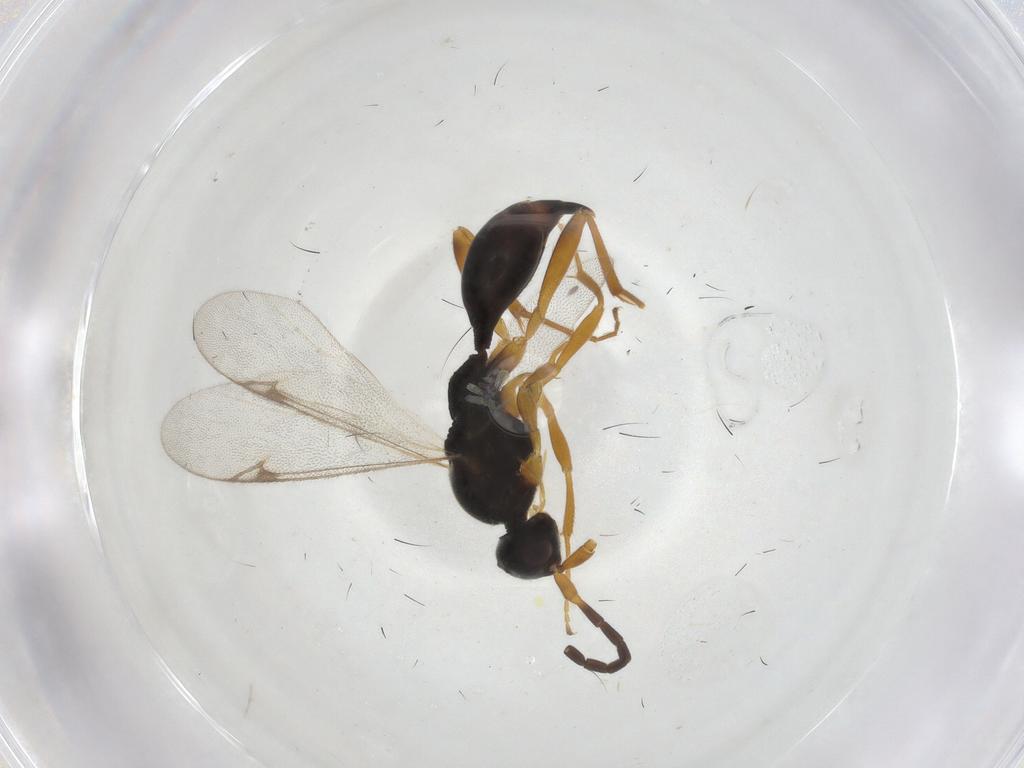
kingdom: Animalia
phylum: Arthropoda
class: Insecta
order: Hymenoptera
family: Proctotrupidae
